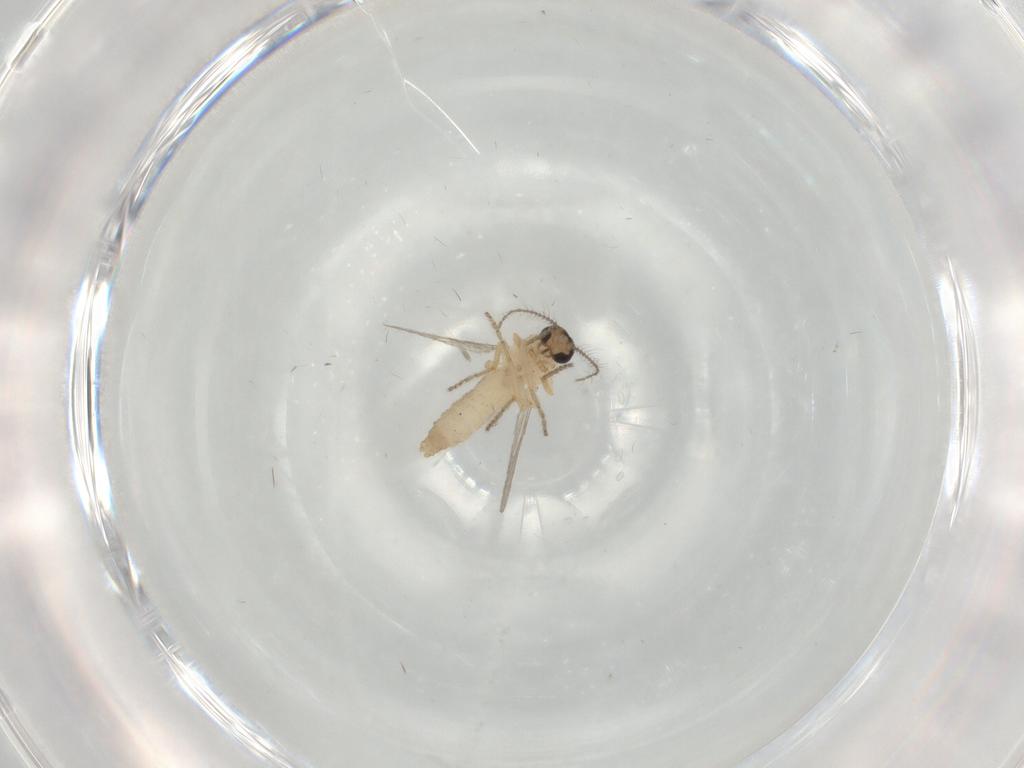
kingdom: Animalia
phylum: Arthropoda
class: Insecta
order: Diptera
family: Ceratopogonidae
